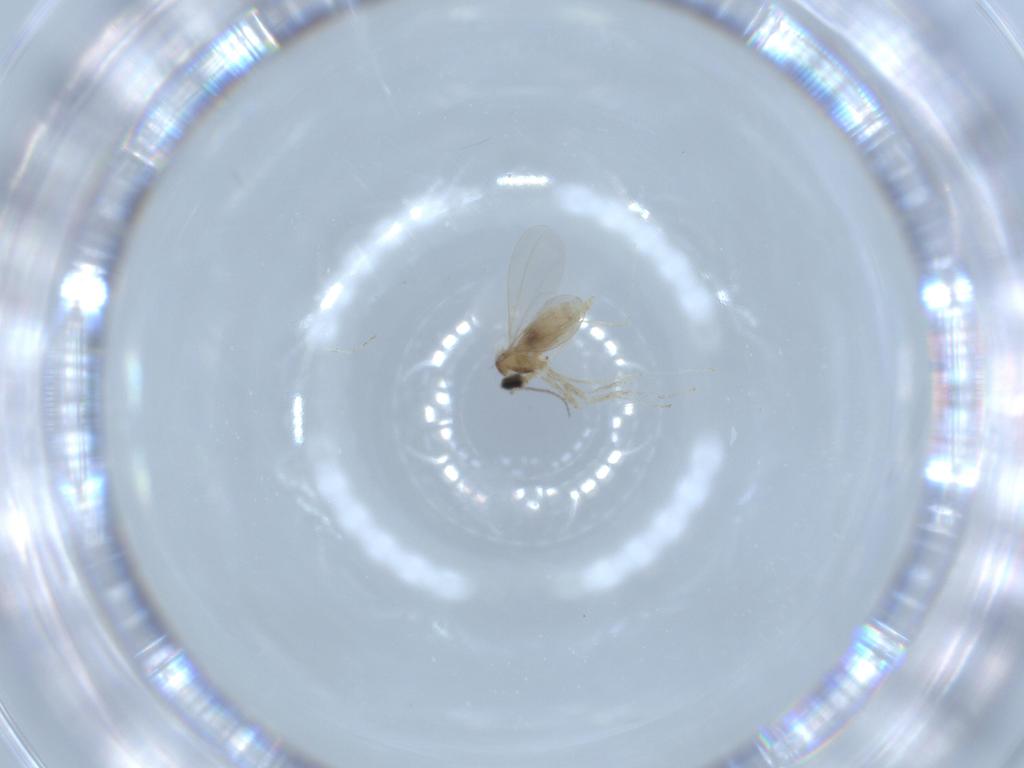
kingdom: Animalia
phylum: Arthropoda
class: Insecta
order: Diptera
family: Cecidomyiidae
